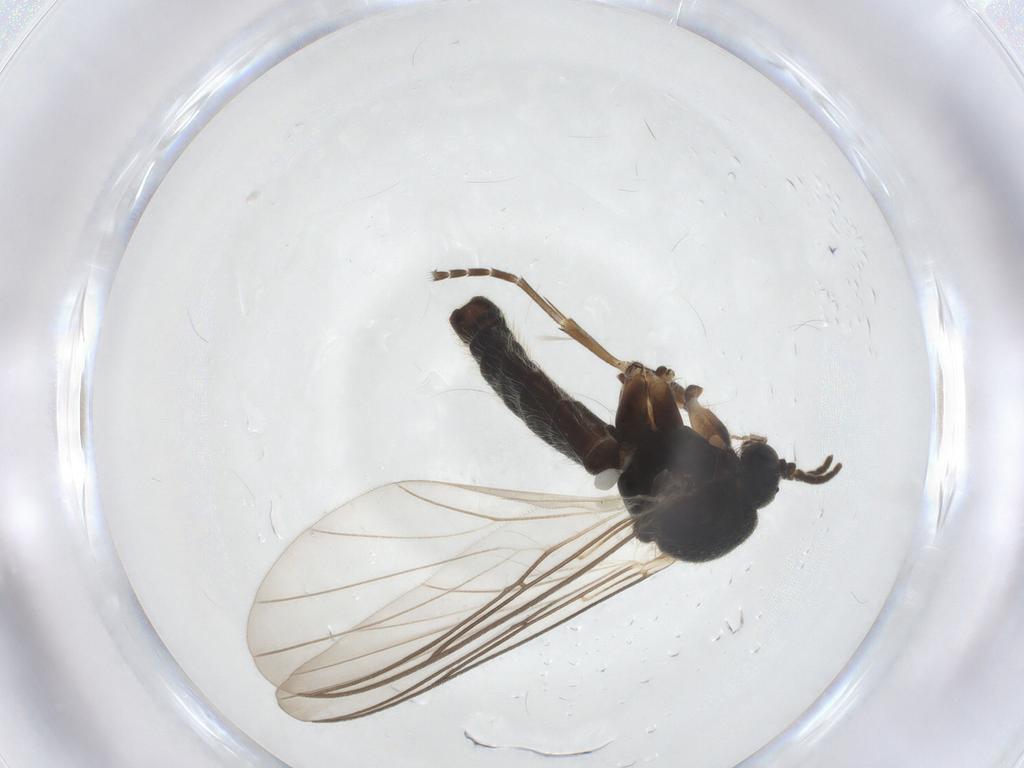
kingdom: Animalia
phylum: Arthropoda
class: Insecta
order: Diptera
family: Mycetophilidae
